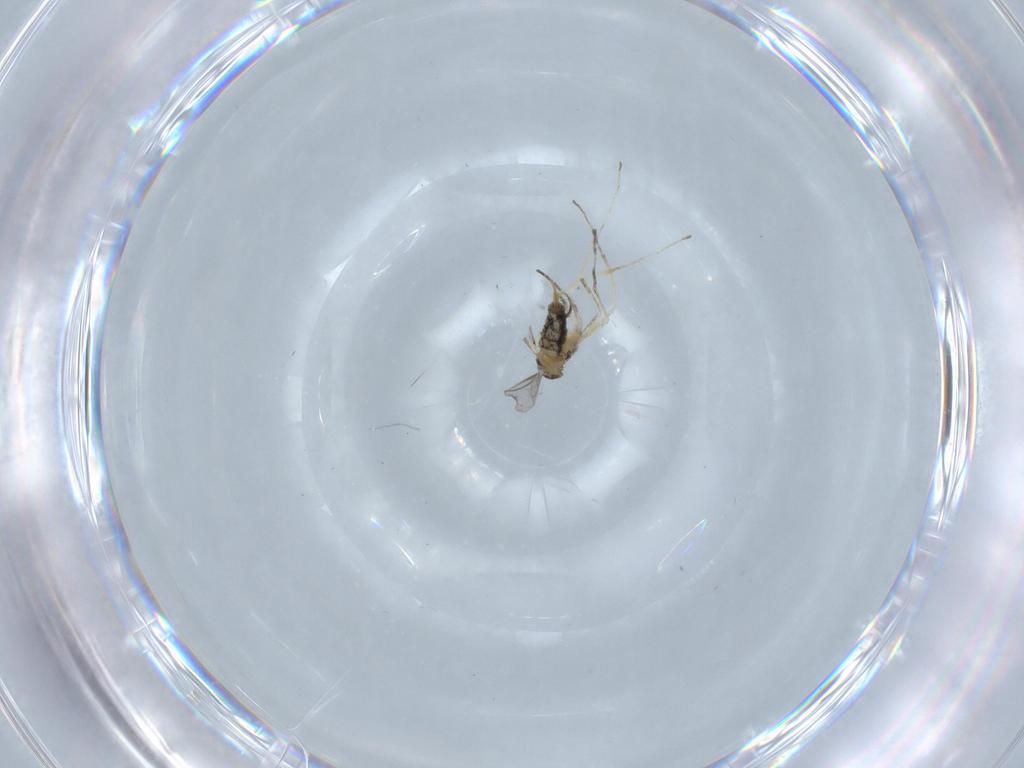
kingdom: Animalia
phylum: Arthropoda
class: Insecta
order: Diptera
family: Cecidomyiidae
